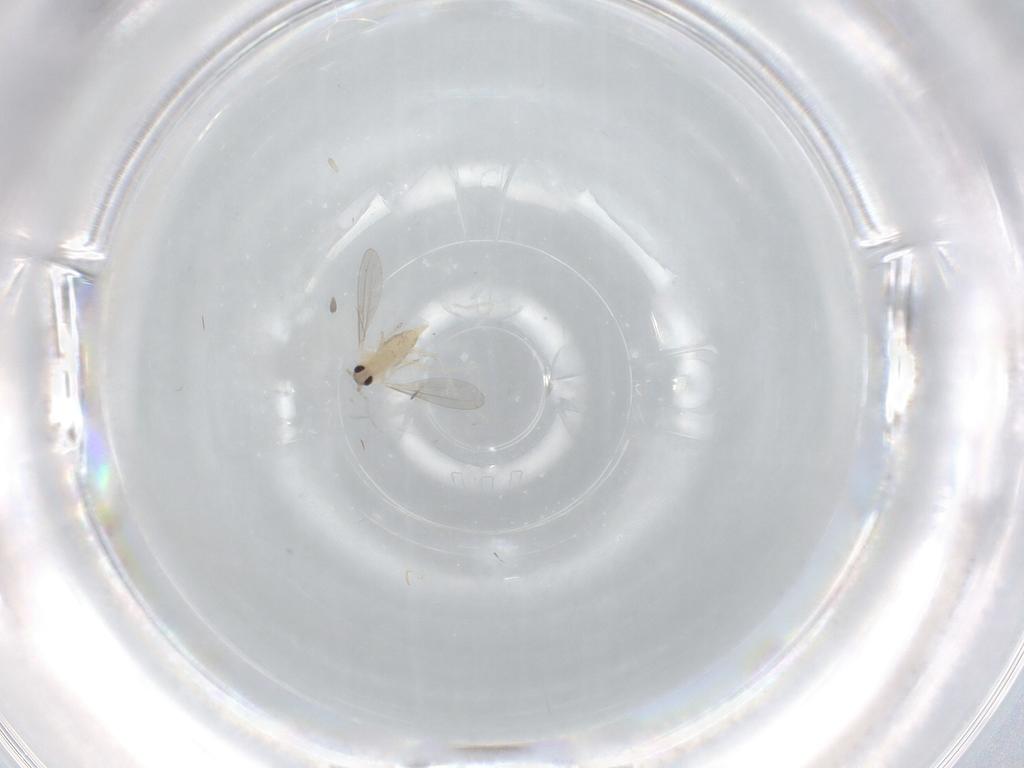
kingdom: Animalia
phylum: Arthropoda
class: Insecta
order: Diptera
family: Cecidomyiidae
